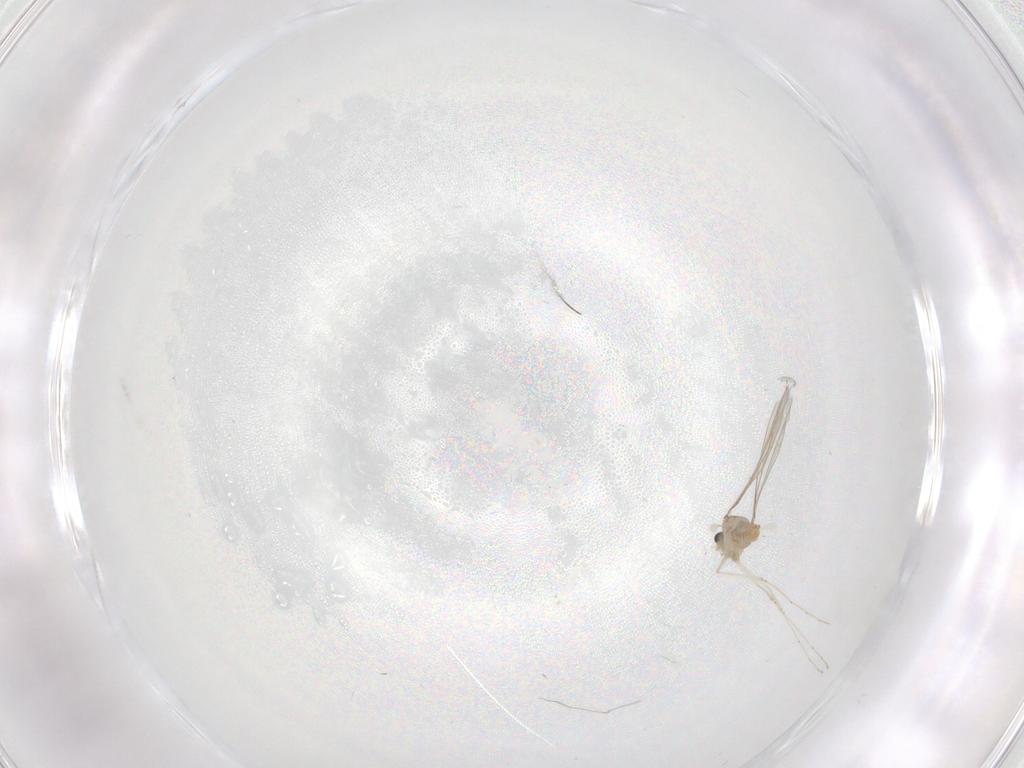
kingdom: Animalia
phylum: Arthropoda
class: Insecta
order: Diptera
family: Cecidomyiidae
